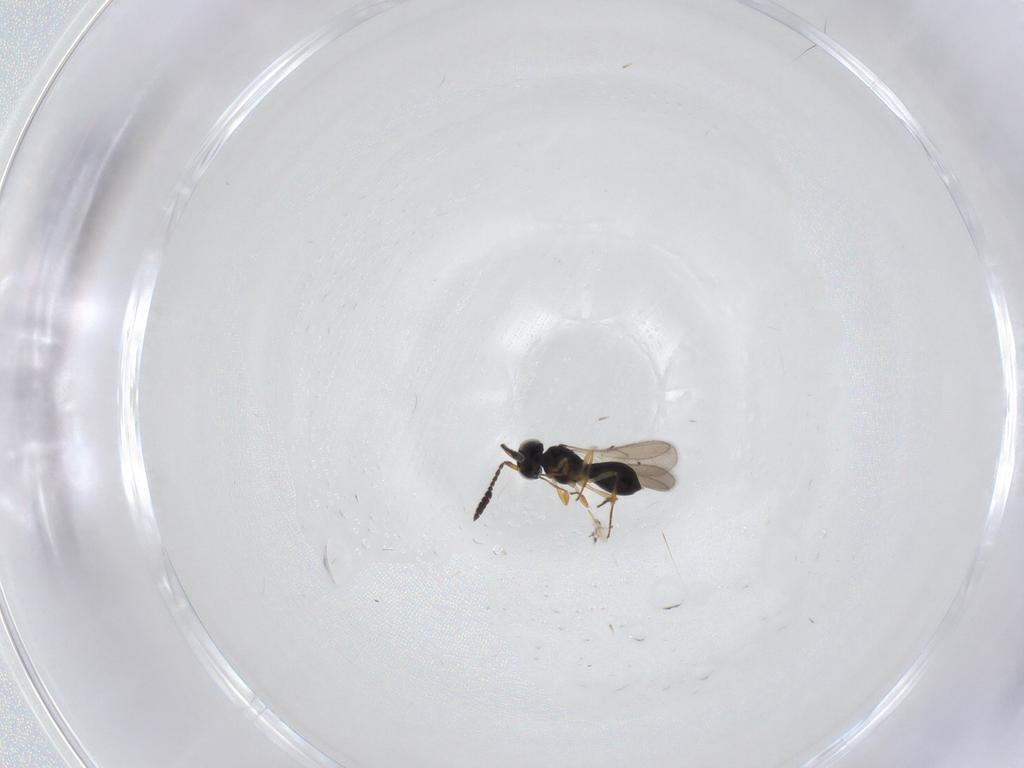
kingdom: Animalia
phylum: Arthropoda
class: Insecta
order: Hymenoptera
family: Scelionidae
